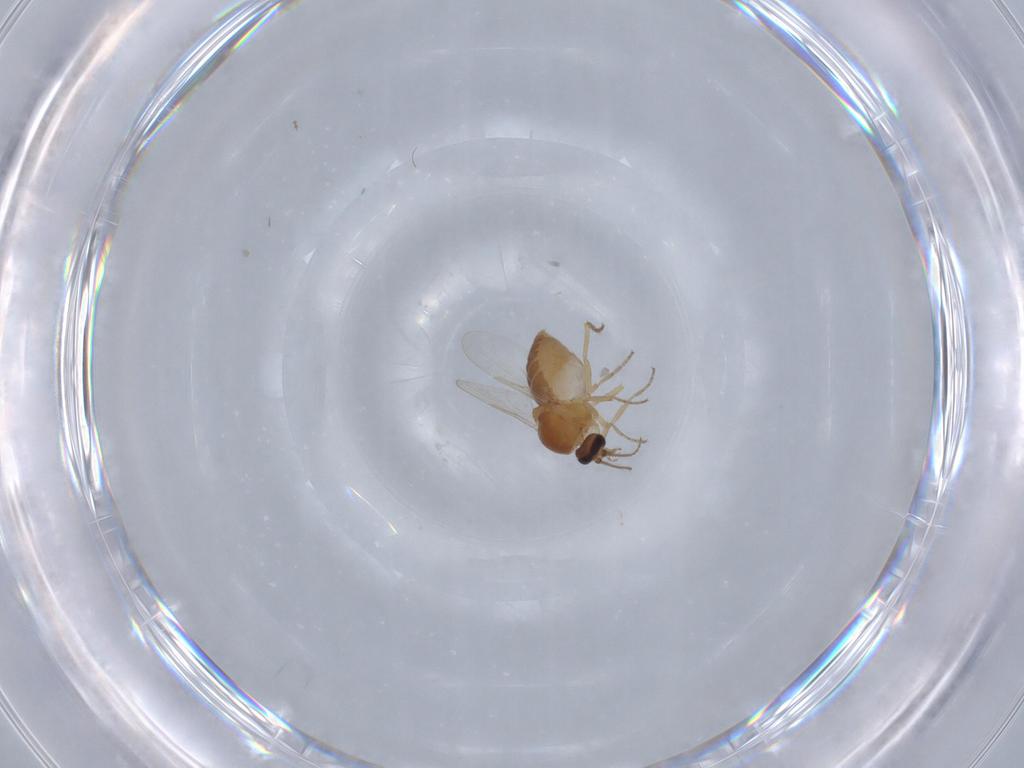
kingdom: Animalia
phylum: Arthropoda
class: Insecta
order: Diptera
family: Ceratopogonidae
